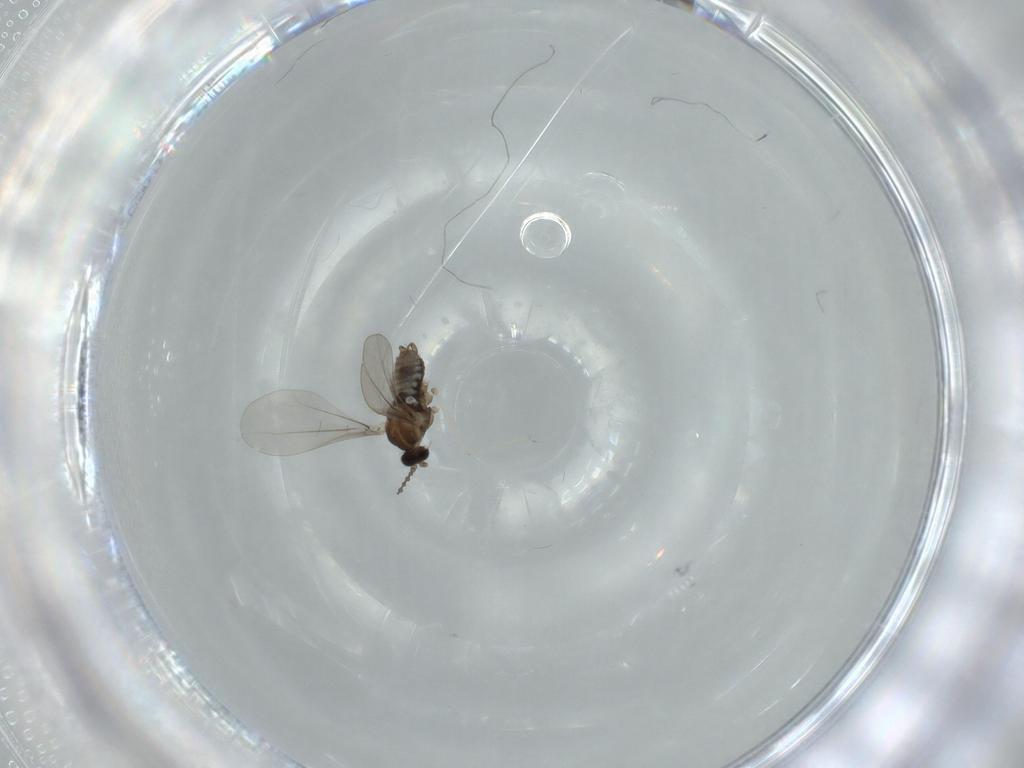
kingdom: Animalia
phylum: Arthropoda
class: Insecta
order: Diptera
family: Cecidomyiidae
